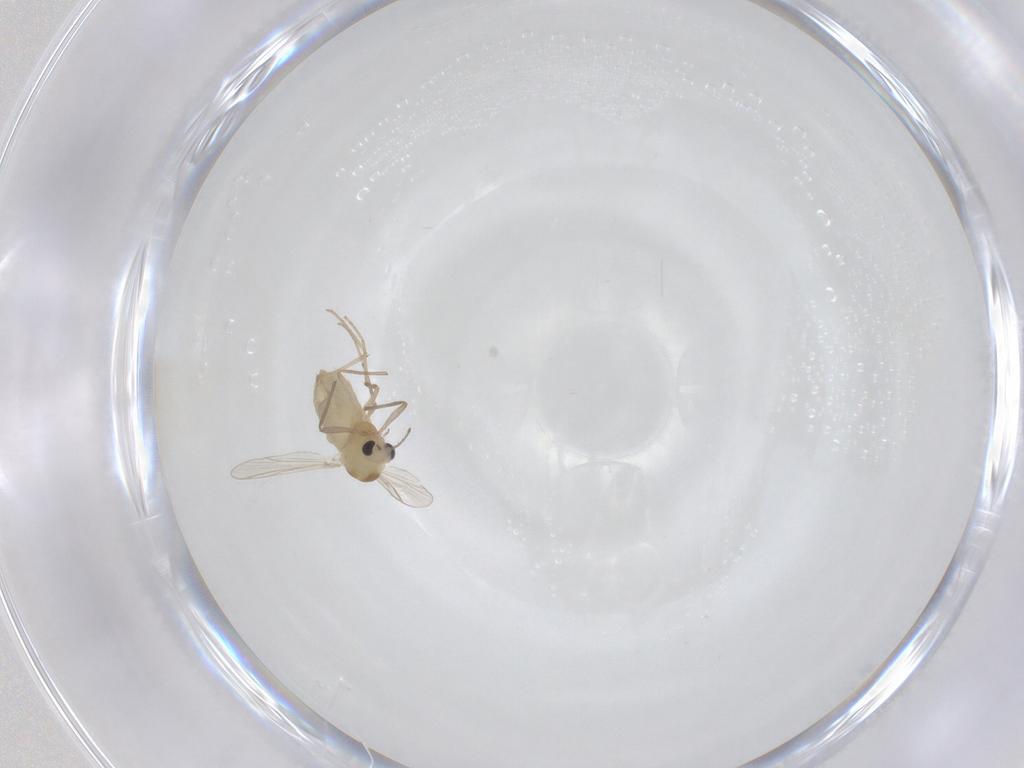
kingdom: Animalia
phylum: Arthropoda
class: Insecta
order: Diptera
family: Chironomidae
